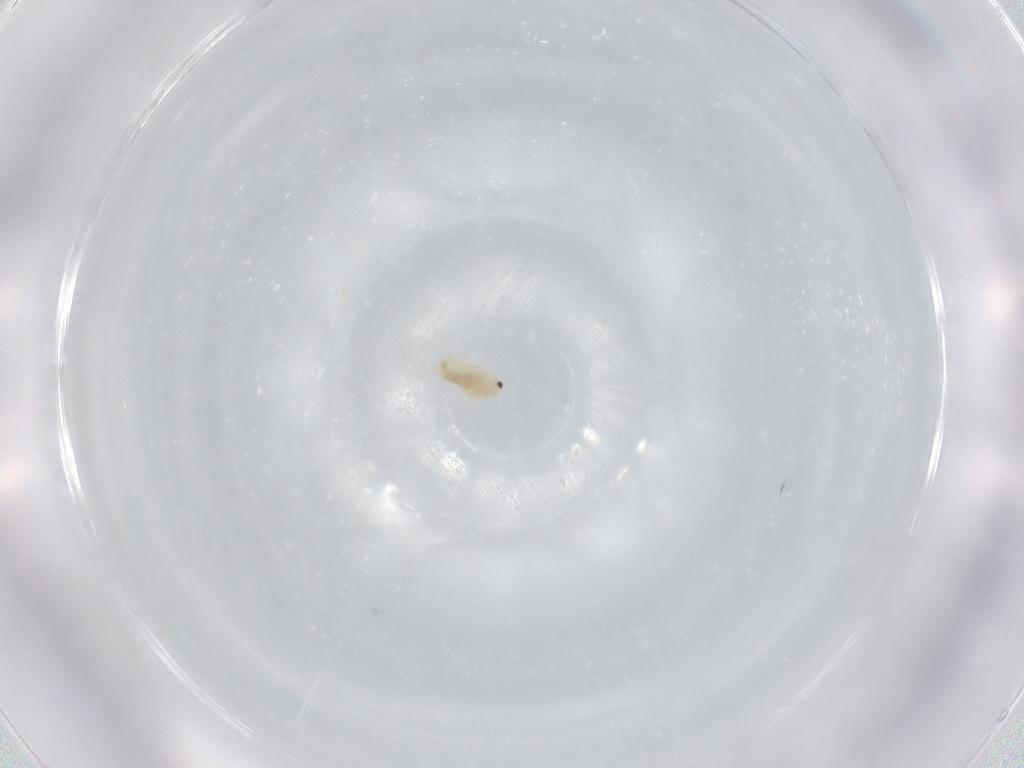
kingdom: Animalia
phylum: Arthropoda
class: Branchiopoda
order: Diplostraca
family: Daphniidae
